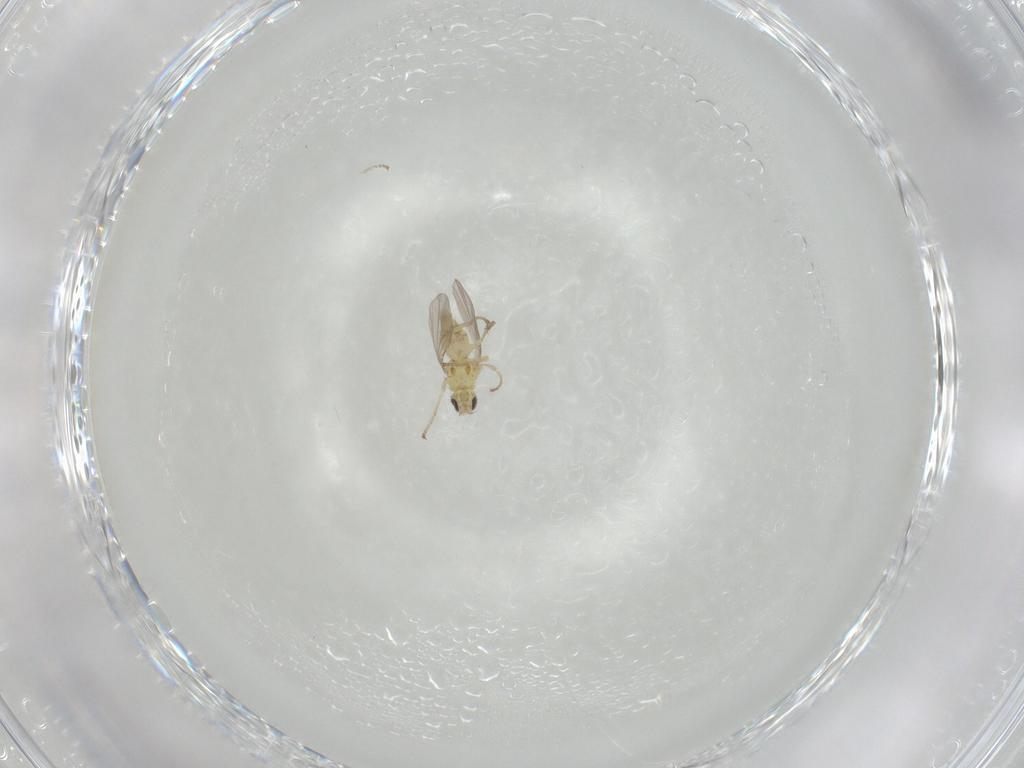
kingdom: Animalia
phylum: Arthropoda
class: Insecta
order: Diptera
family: Agromyzidae
